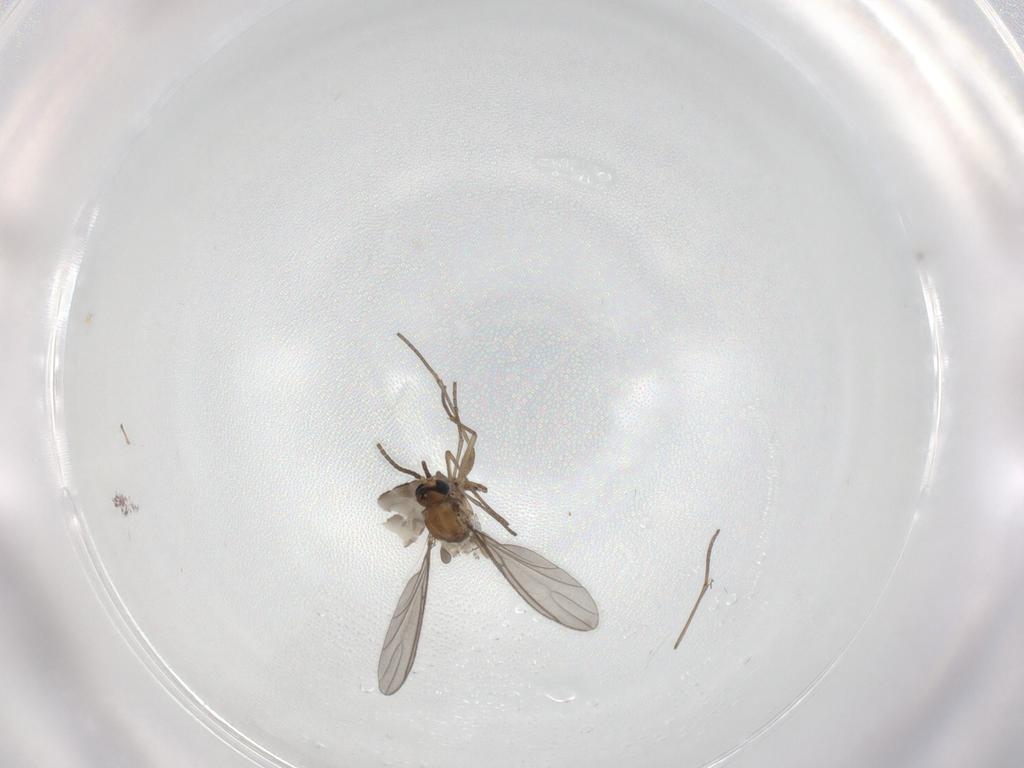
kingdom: Animalia
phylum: Arthropoda
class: Insecta
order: Diptera
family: Sciaridae
